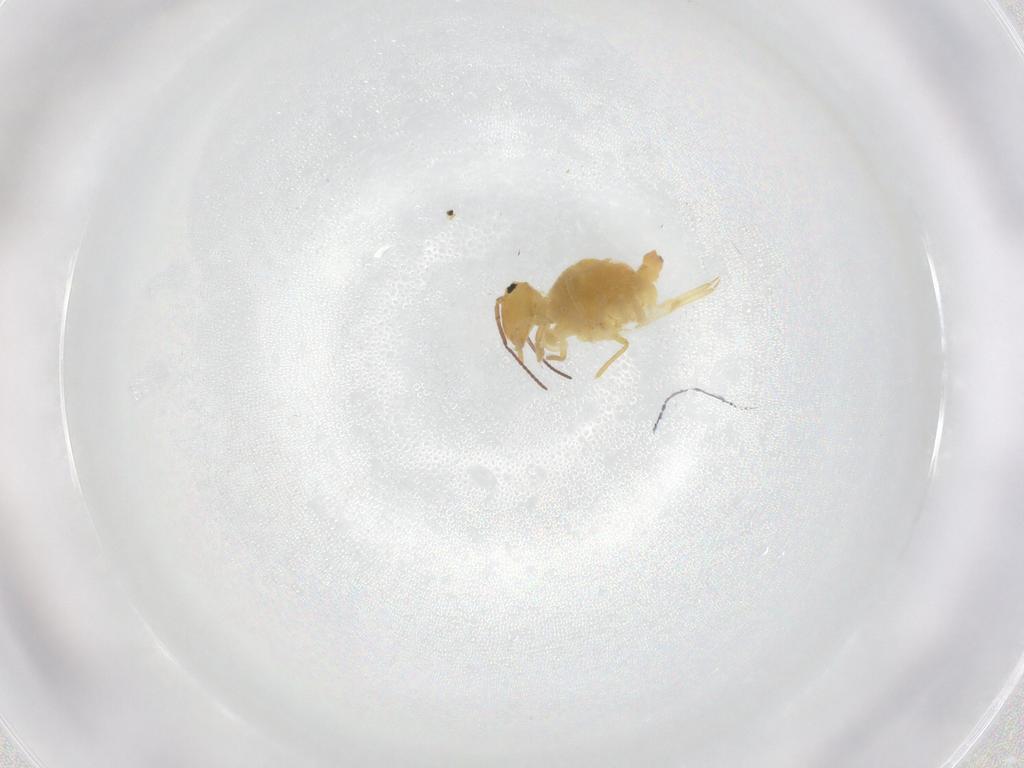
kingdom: Animalia
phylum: Arthropoda
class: Collembola
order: Symphypleona
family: Bourletiellidae
